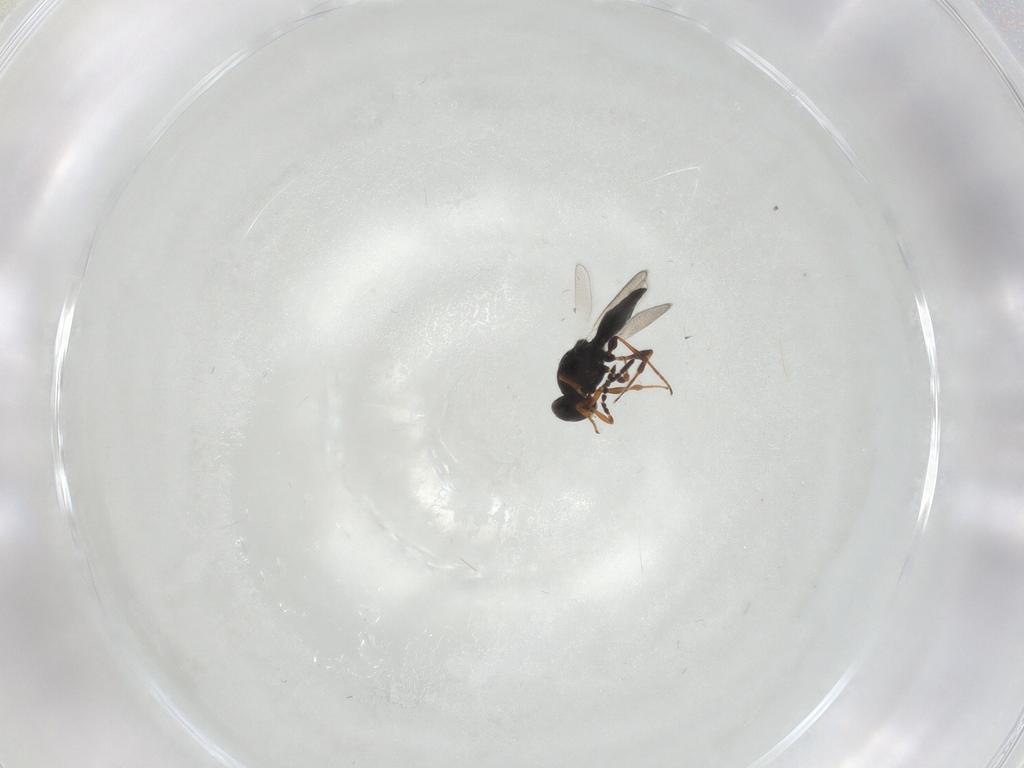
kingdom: Animalia
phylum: Arthropoda
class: Insecta
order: Hymenoptera
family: Platygastridae
